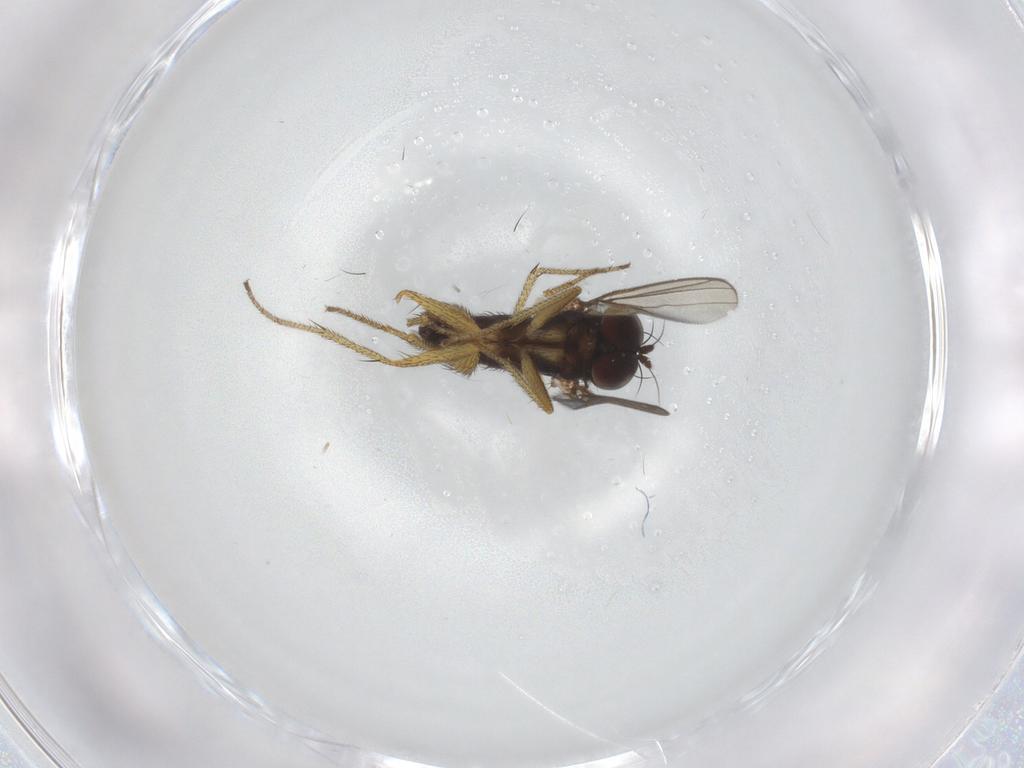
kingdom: Animalia
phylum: Arthropoda
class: Insecta
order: Diptera
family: Chironomidae
